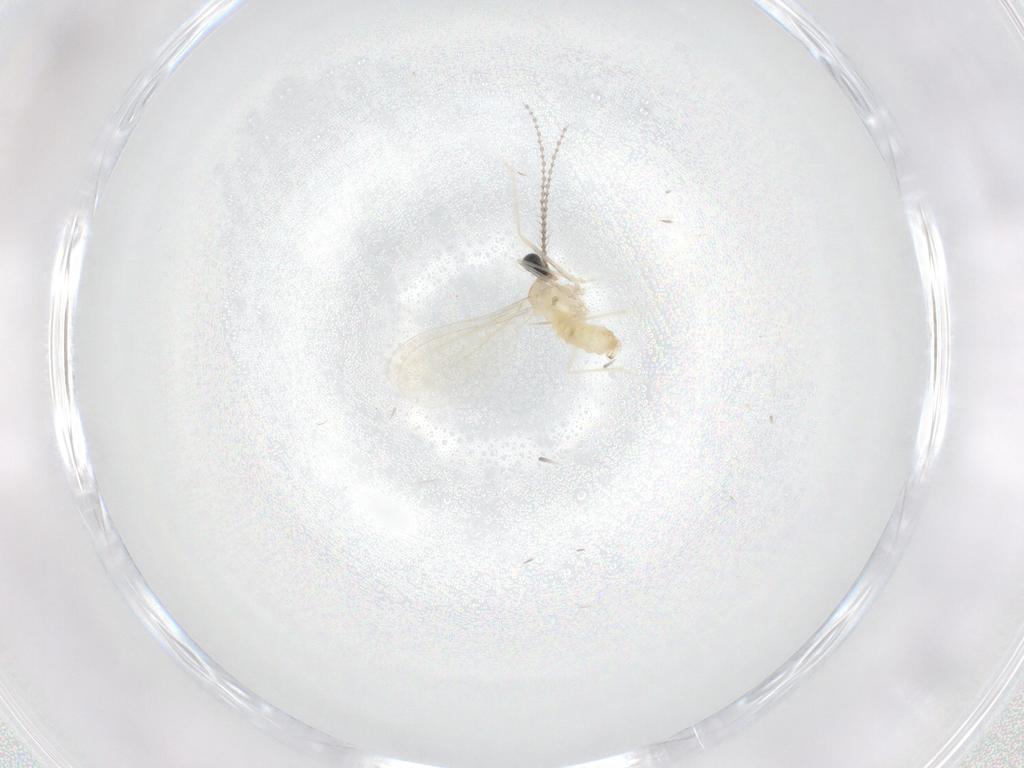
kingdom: Animalia
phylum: Arthropoda
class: Insecta
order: Diptera
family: Cecidomyiidae
